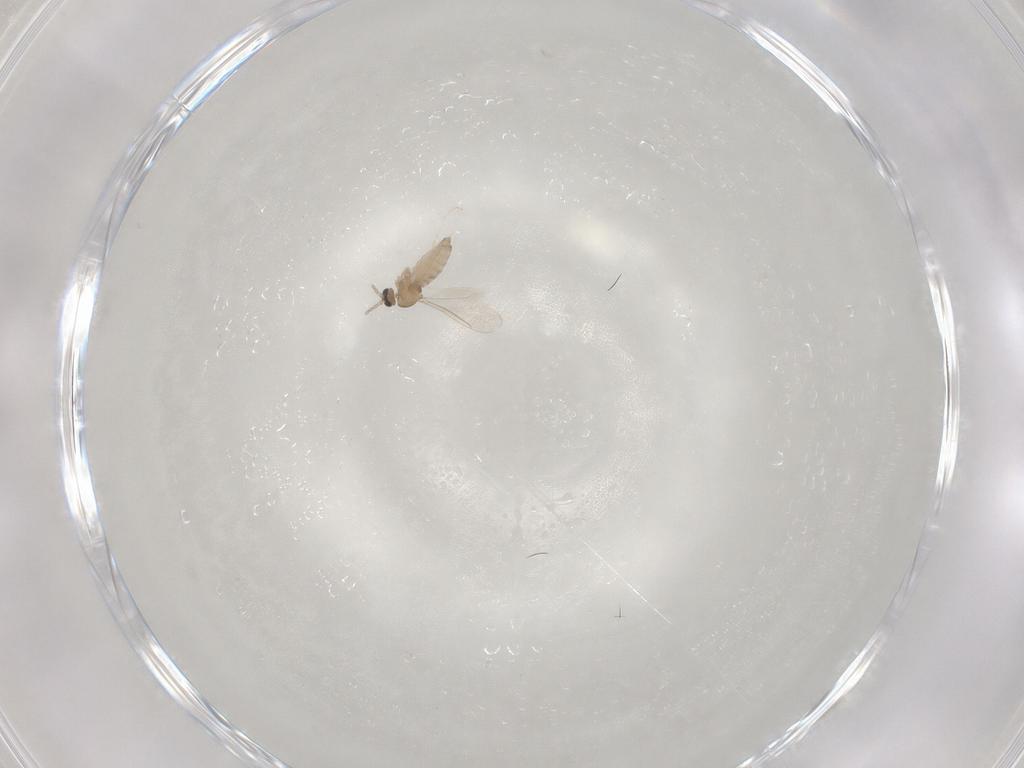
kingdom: Animalia
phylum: Arthropoda
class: Insecta
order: Diptera
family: Cecidomyiidae
